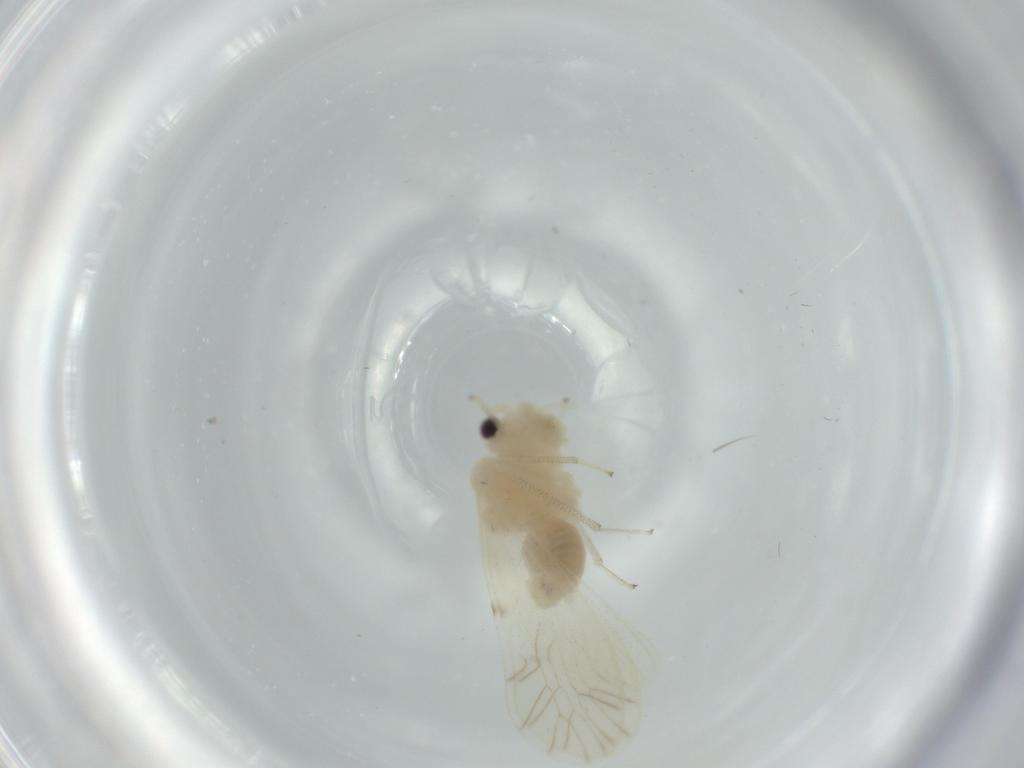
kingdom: Animalia
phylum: Arthropoda
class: Insecta
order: Psocodea
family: Caeciliusidae
